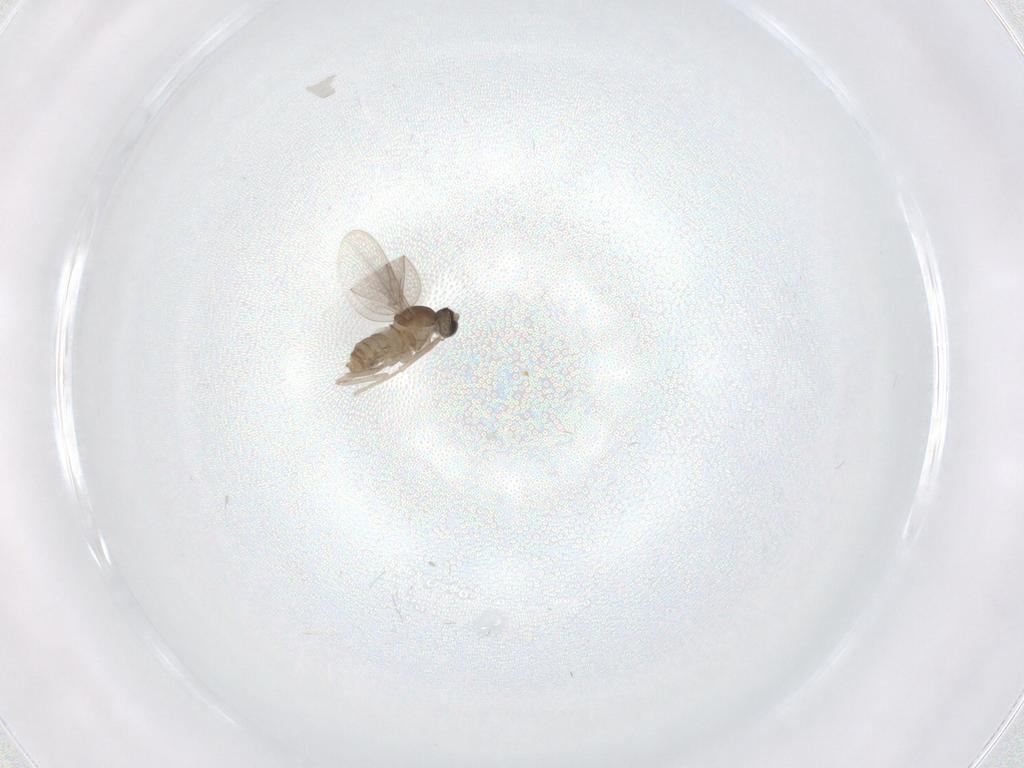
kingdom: Animalia
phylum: Arthropoda
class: Insecta
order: Diptera
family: Cecidomyiidae
